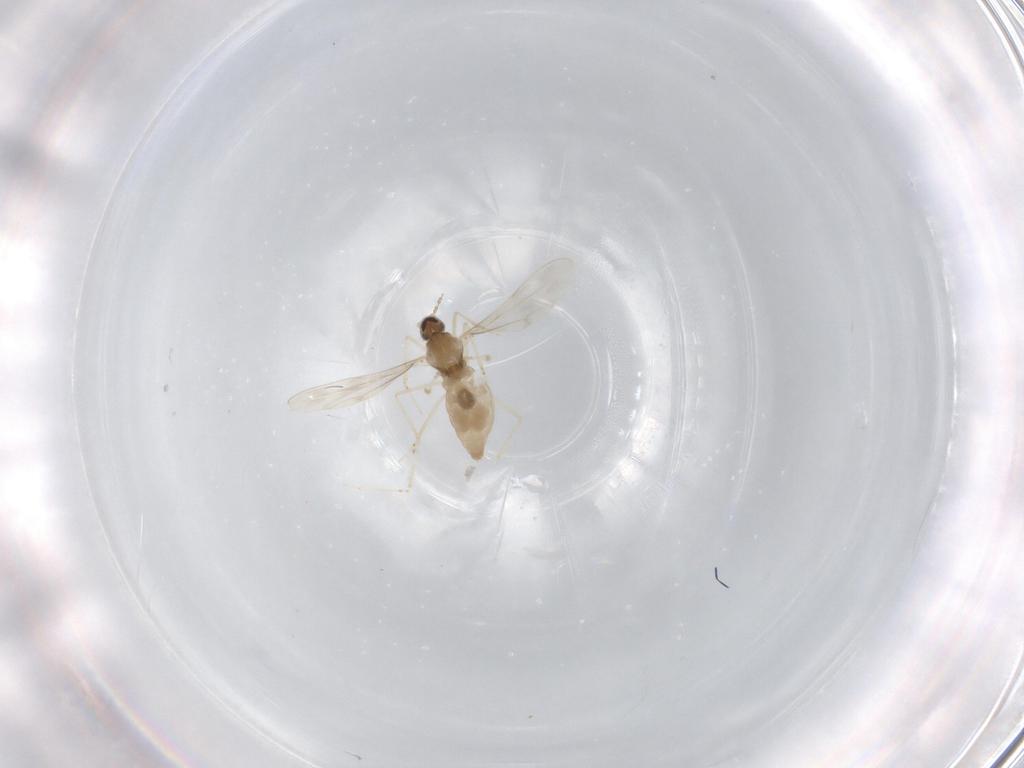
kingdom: Animalia
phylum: Arthropoda
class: Insecta
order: Diptera
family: Cecidomyiidae
